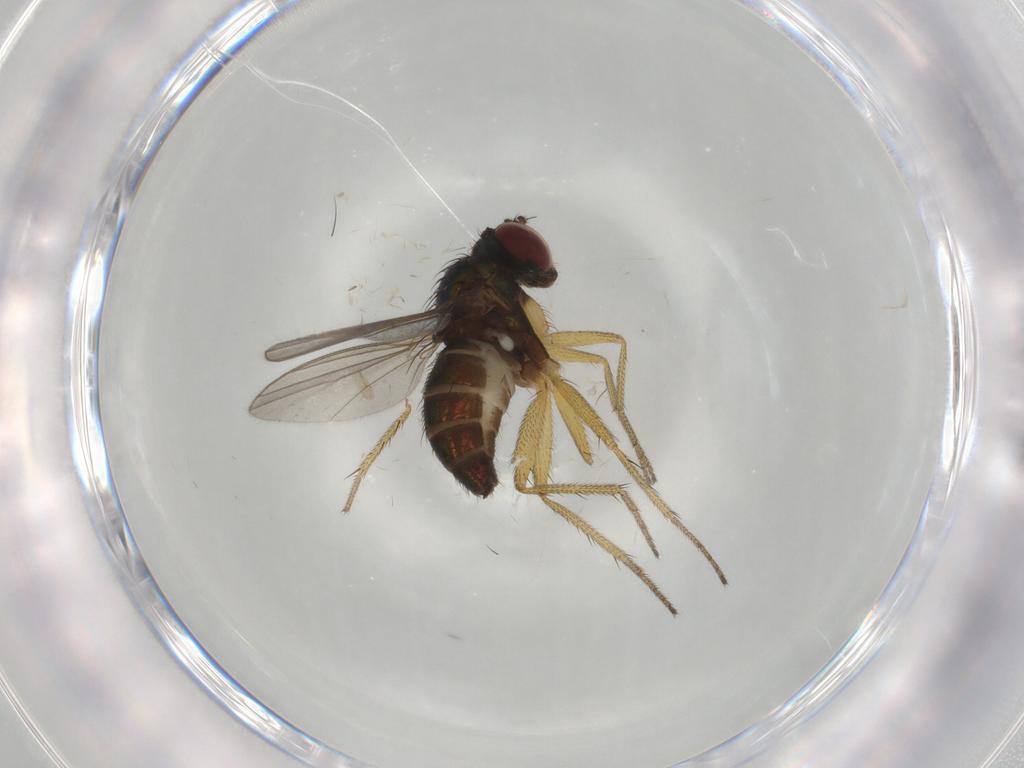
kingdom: Animalia
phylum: Arthropoda
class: Insecta
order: Diptera
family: Dolichopodidae
